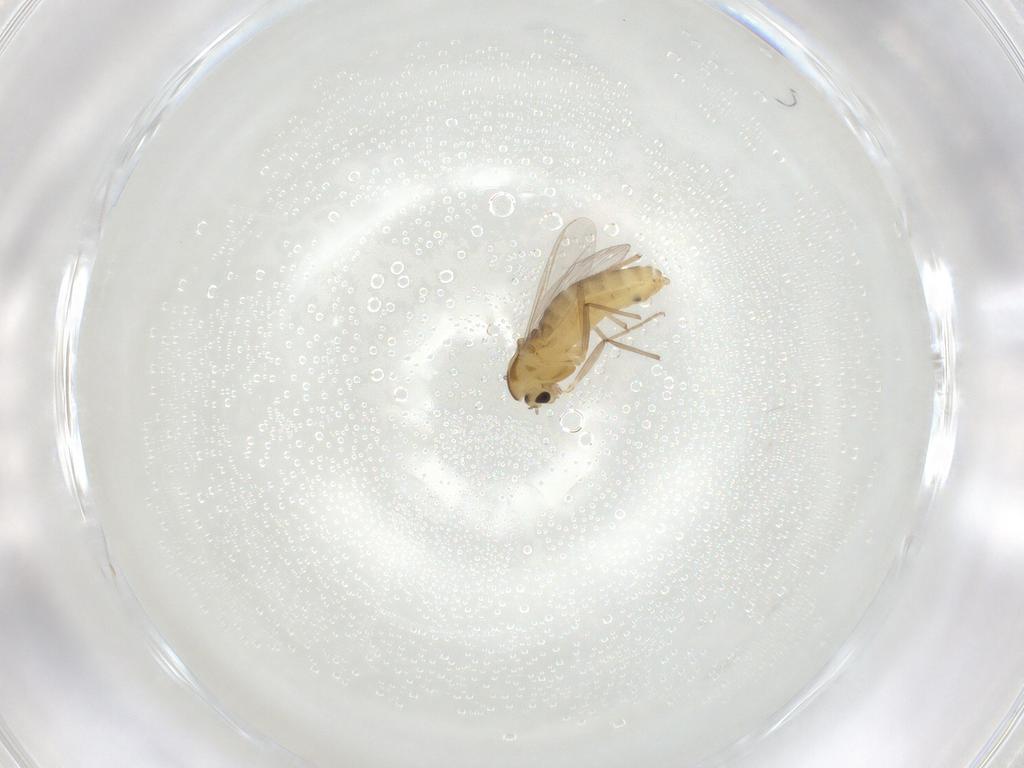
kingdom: Animalia
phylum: Arthropoda
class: Insecta
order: Diptera
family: Chironomidae
